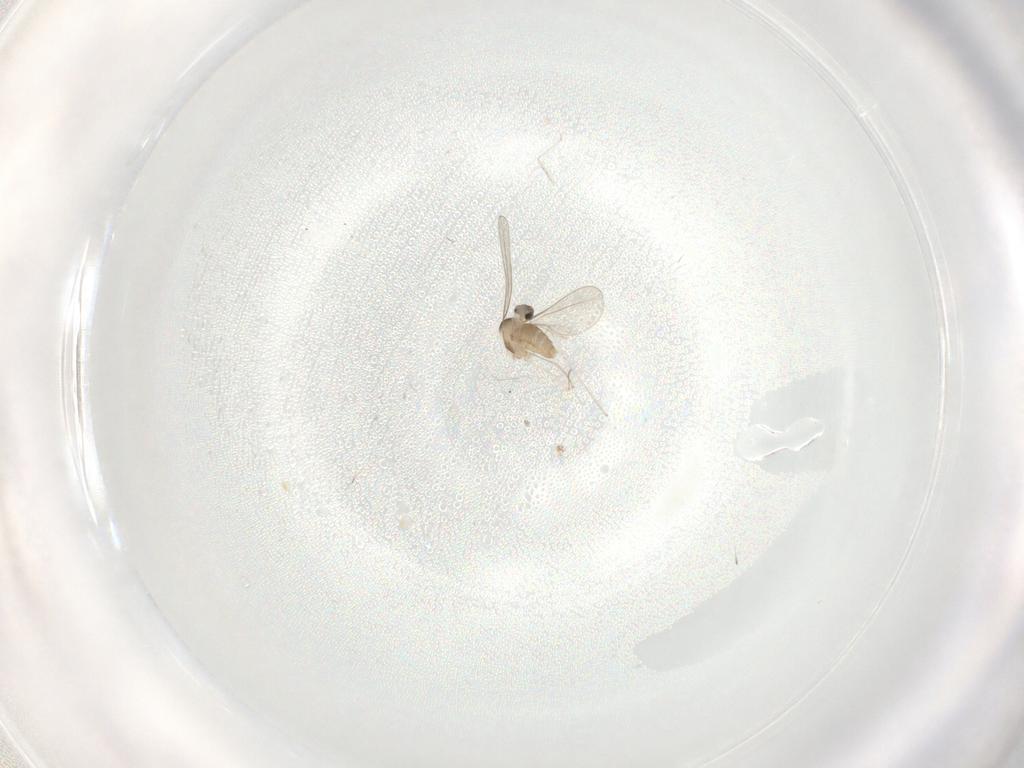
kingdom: Animalia
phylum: Arthropoda
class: Insecta
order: Diptera
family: Cecidomyiidae
